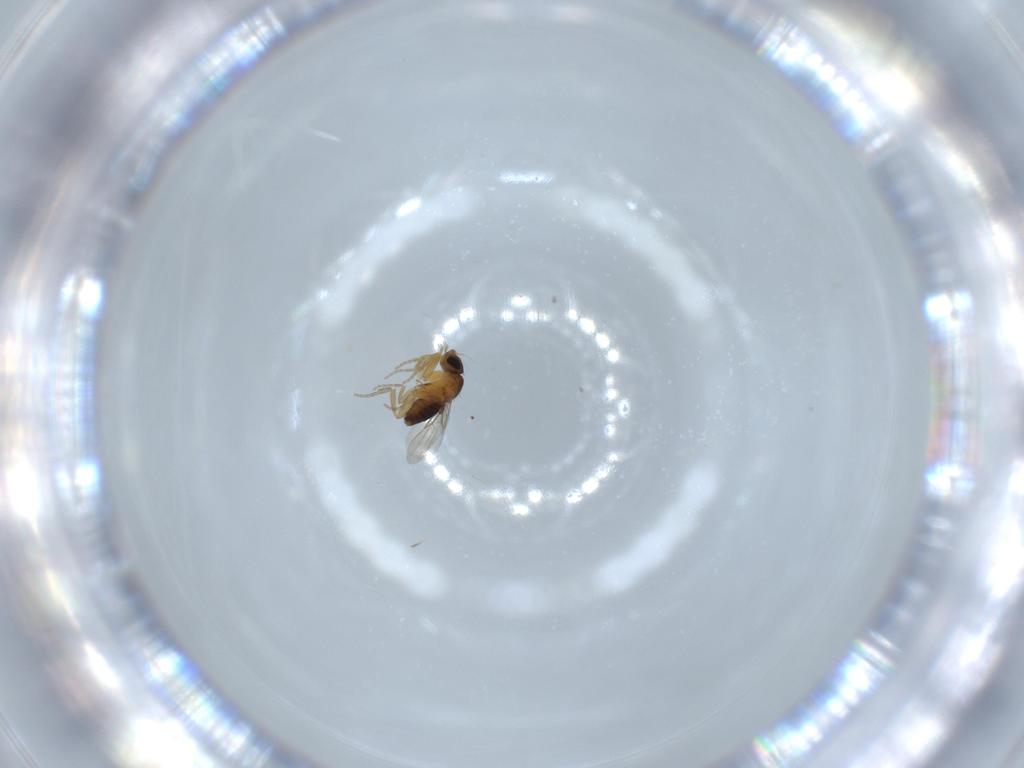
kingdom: Animalia
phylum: Arthropoda
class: Insecta
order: Diptera
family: Phoridae
